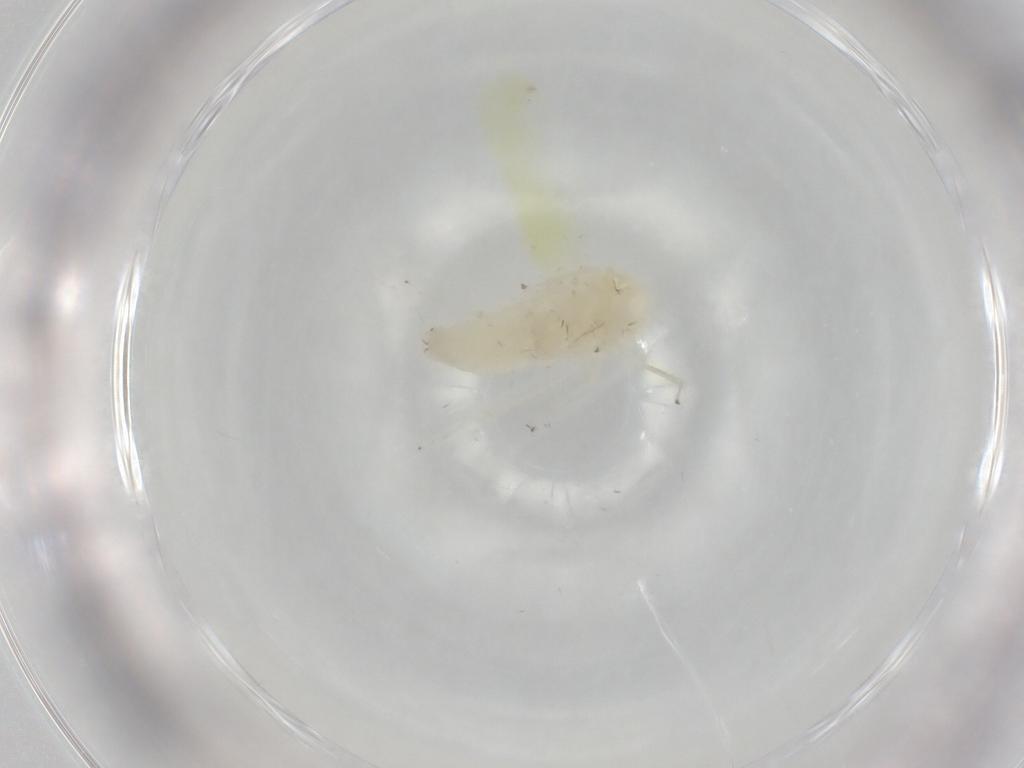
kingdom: Animalia
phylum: Arthropoda
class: Insecta
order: Hemiptera
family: Cicadellidae
